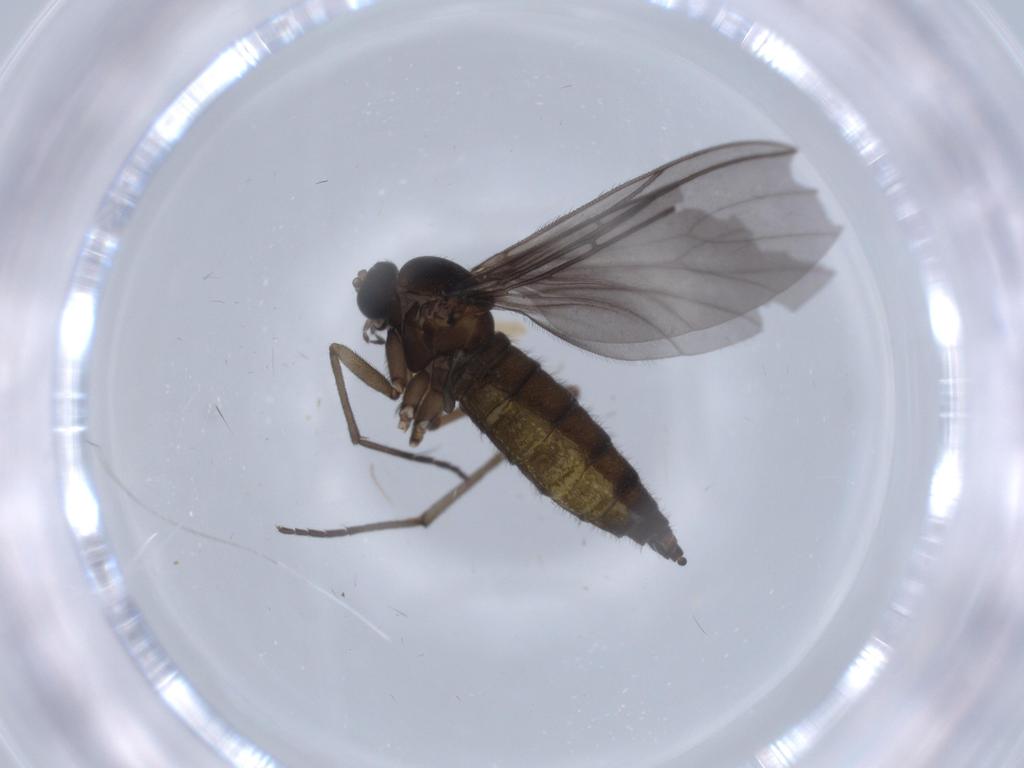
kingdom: Animalia
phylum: Arthropoda
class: Insecta
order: Diptera
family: Sciaridae
